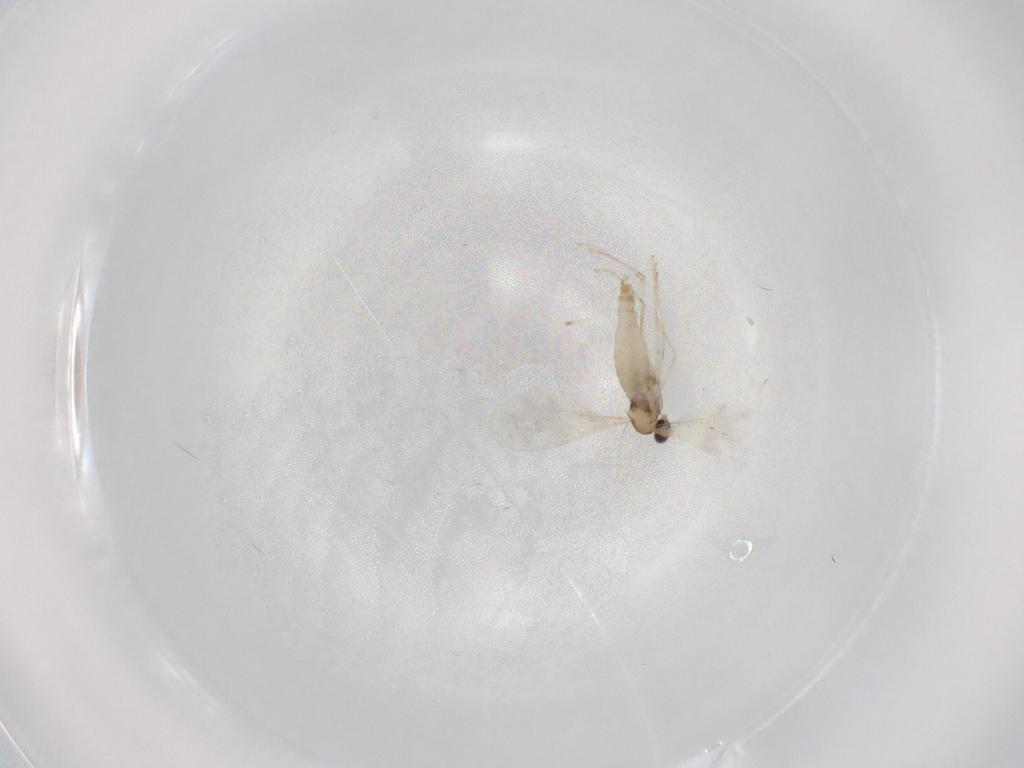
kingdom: Animalia
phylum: Arthropoda
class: Insecta
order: Diptera
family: Cecidomyiidae
